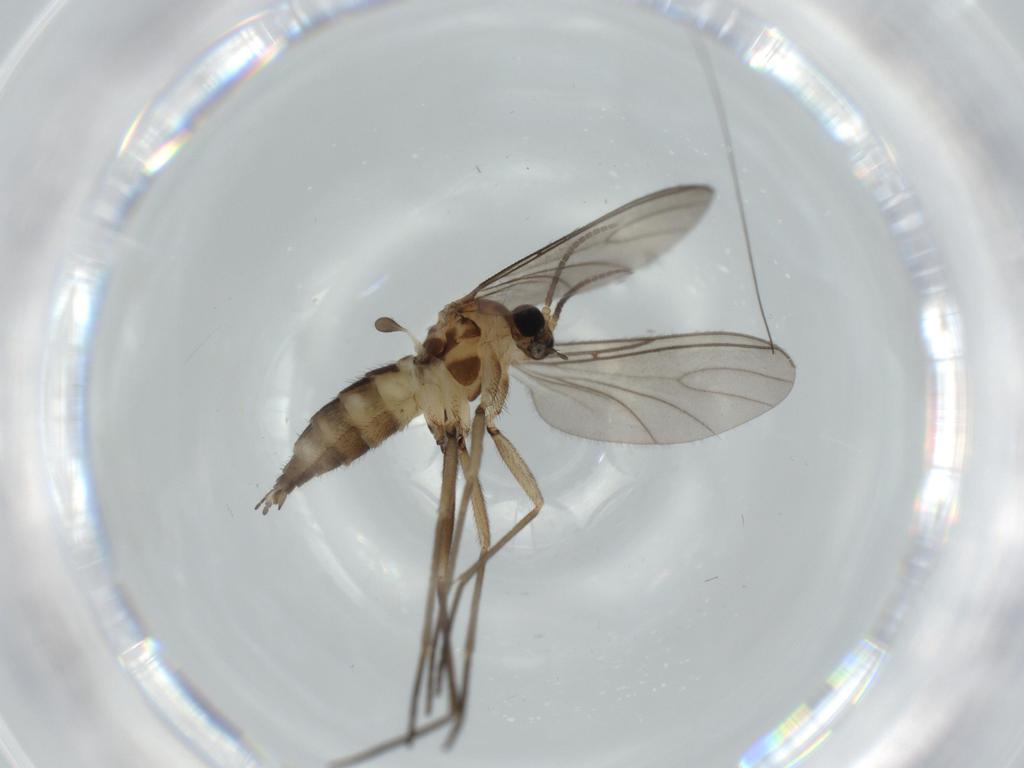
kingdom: Animalia
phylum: Arthropoda
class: Insecta
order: Diptera
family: Sciaridae
